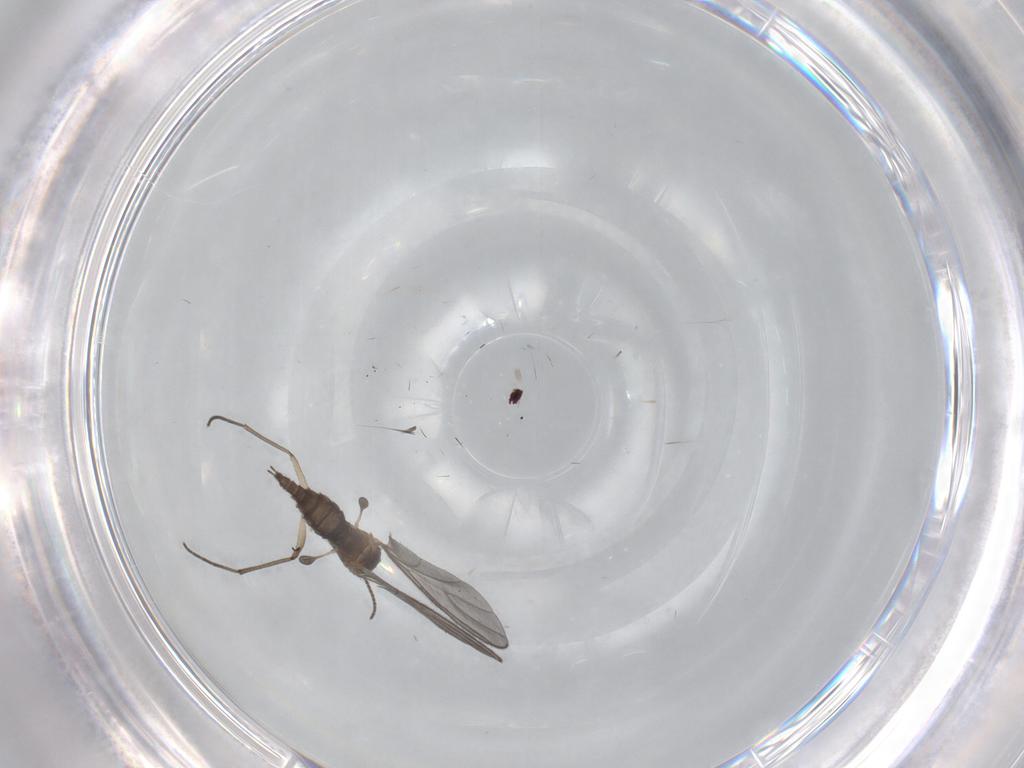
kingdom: Animalia
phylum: Arthropoda
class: Insecta
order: Diptera
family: Sciaridae
